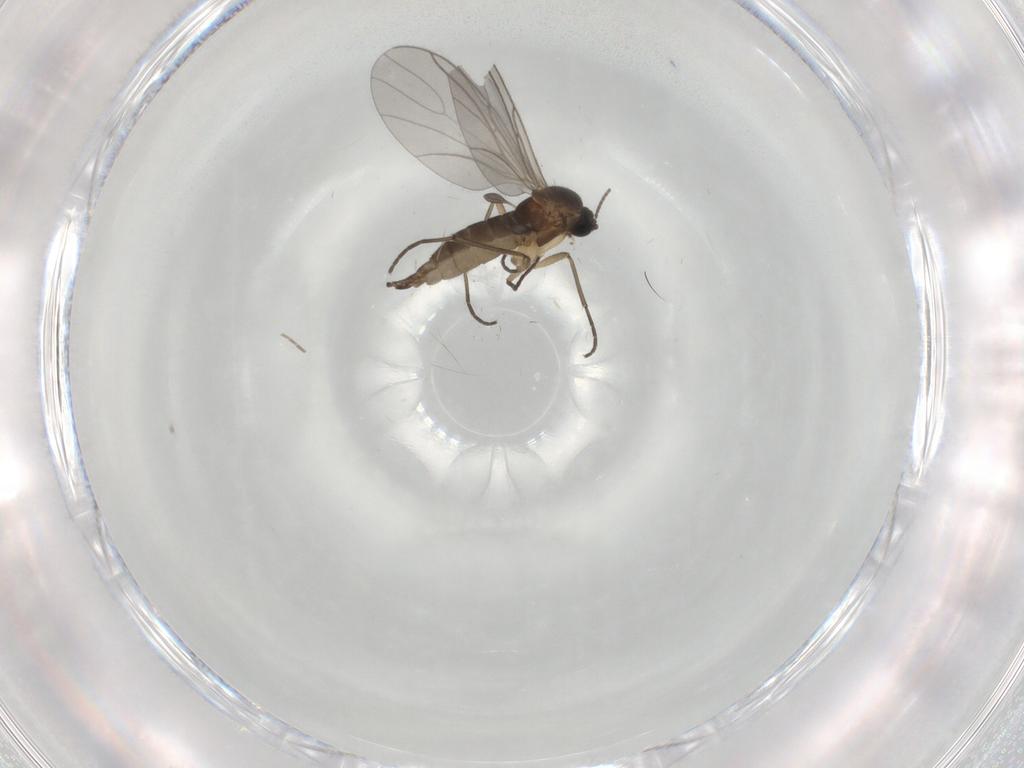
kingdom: Animalia
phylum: Arthropoda
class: Insecta
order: Diptera
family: Sciaridae
